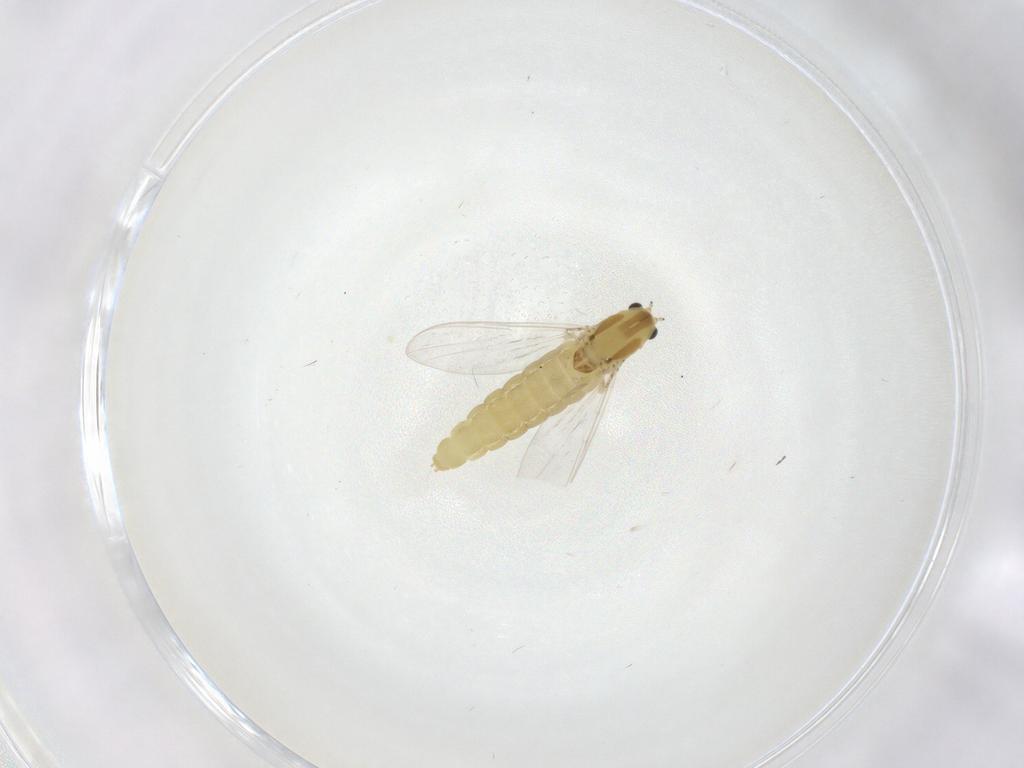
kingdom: Animalia
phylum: Arthropoda
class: Insecta
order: Diptera
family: Chironomidae
